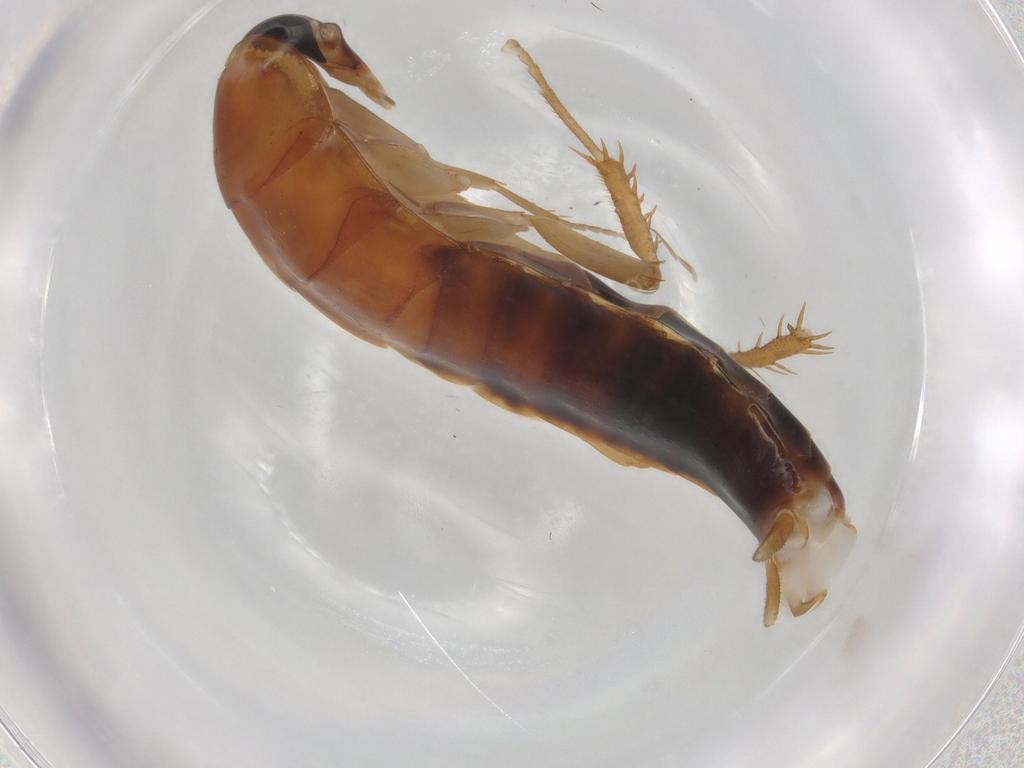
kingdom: Animalia
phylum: Arthropoda
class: Insecta
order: Blattodea
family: Blaberidae
